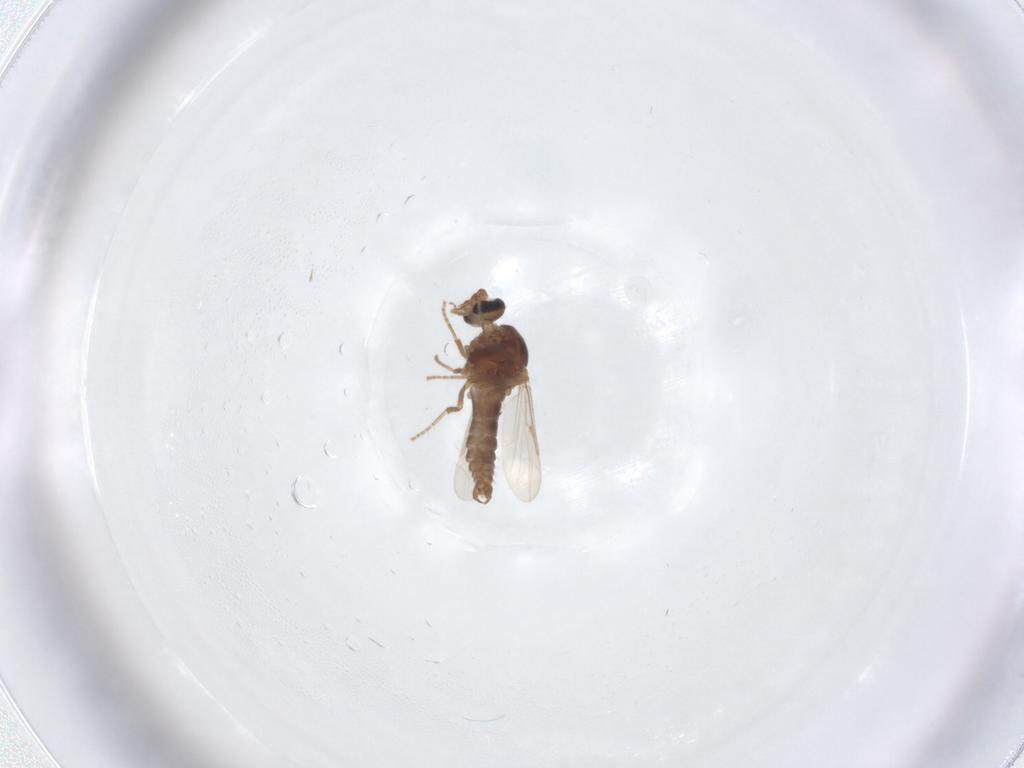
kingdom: Animalia
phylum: Arthropoda
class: Insecta
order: Diptera
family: Ceratopogonidae
